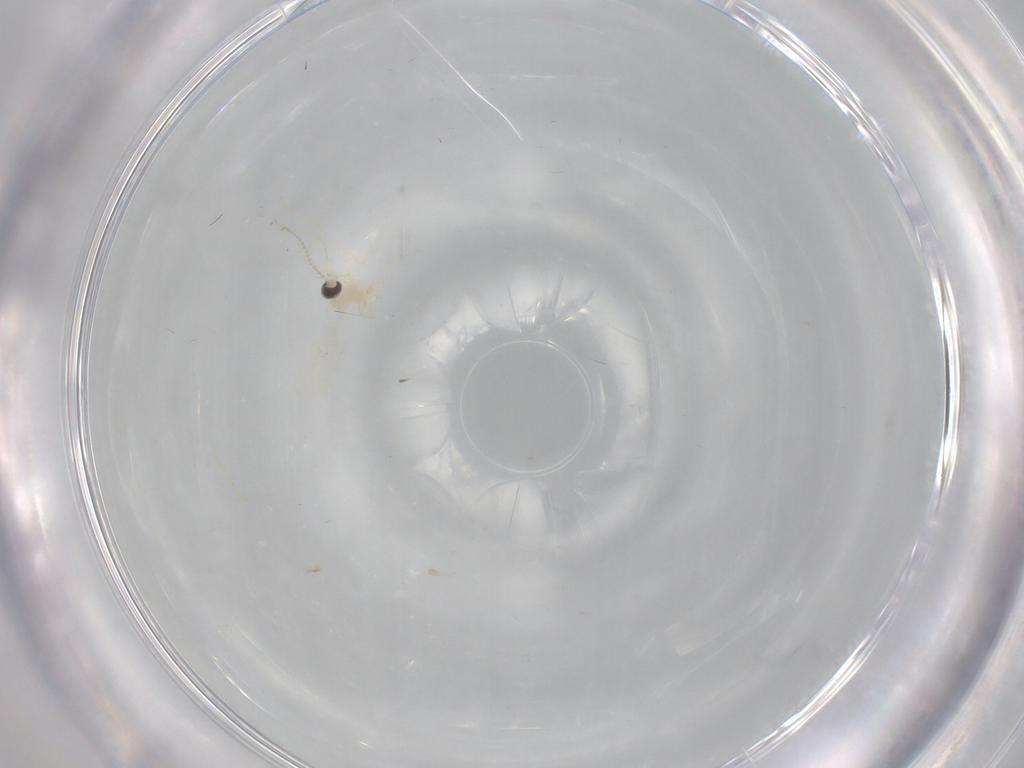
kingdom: Animalia
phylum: Arthropoda
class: Insecta
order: Diptera
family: Cecidomyiidae
